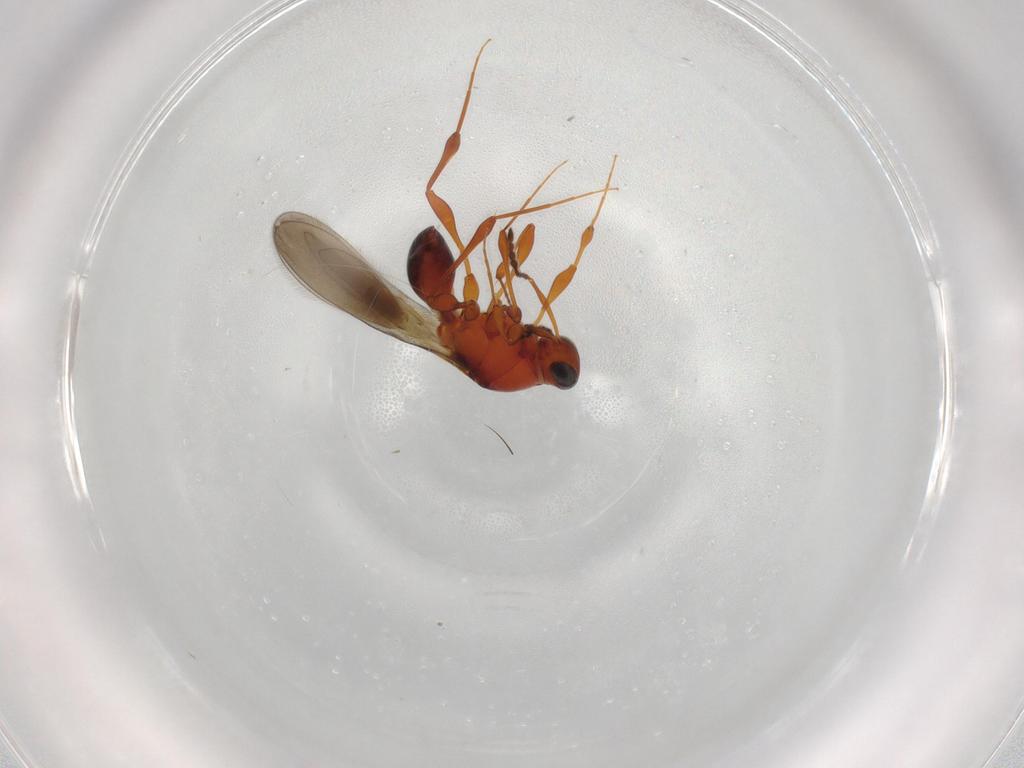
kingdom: Animalia
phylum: Arthropoda
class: Insecta
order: Hymenoptera
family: Platygastridae
